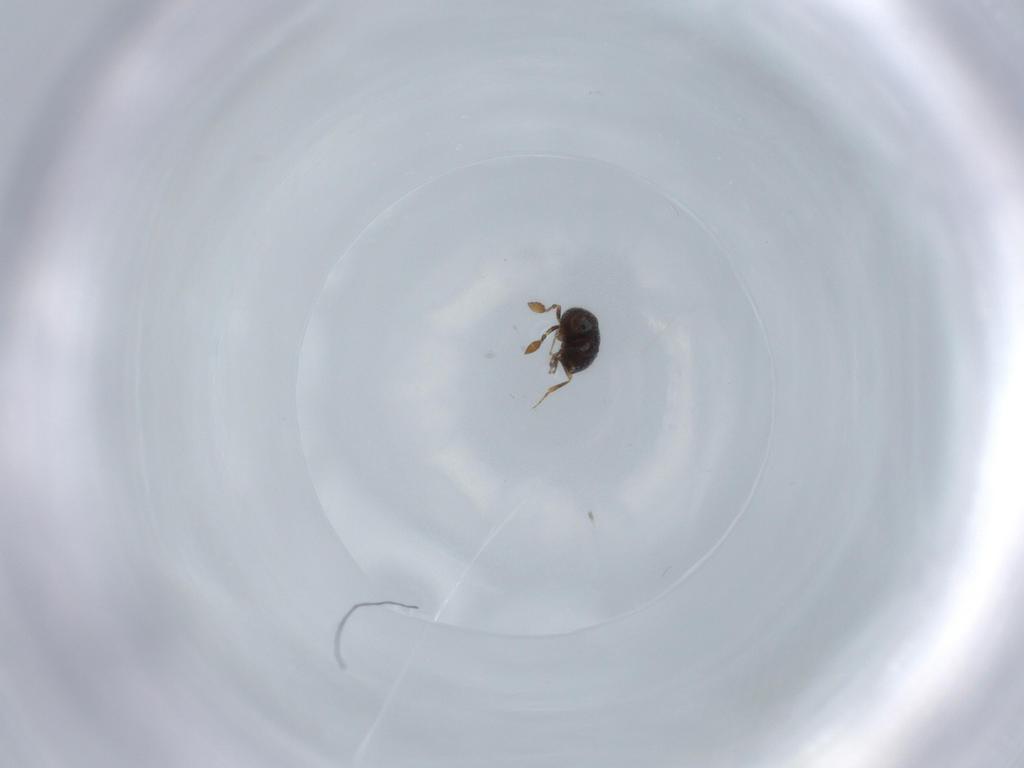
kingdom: Animalia
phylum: Arthropoda
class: Insecta
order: Hymenoptera
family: Scelionidae
